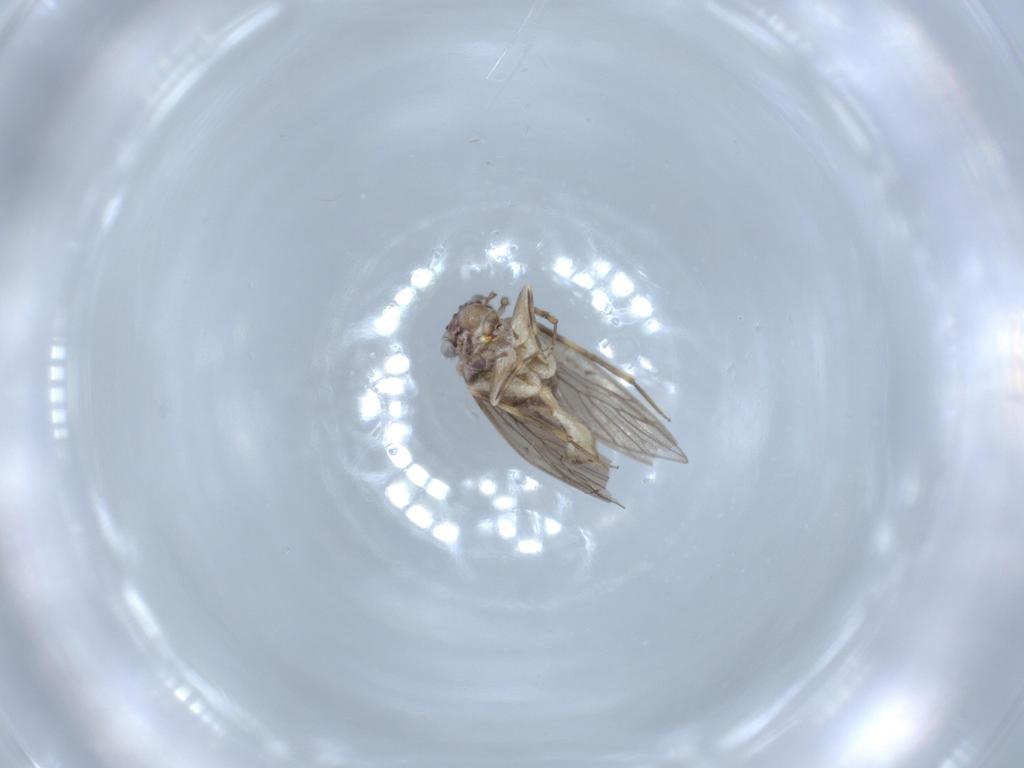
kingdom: Animalia
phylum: Arthropoda
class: Insecta
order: Psocodea
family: Lepidopsocidae
